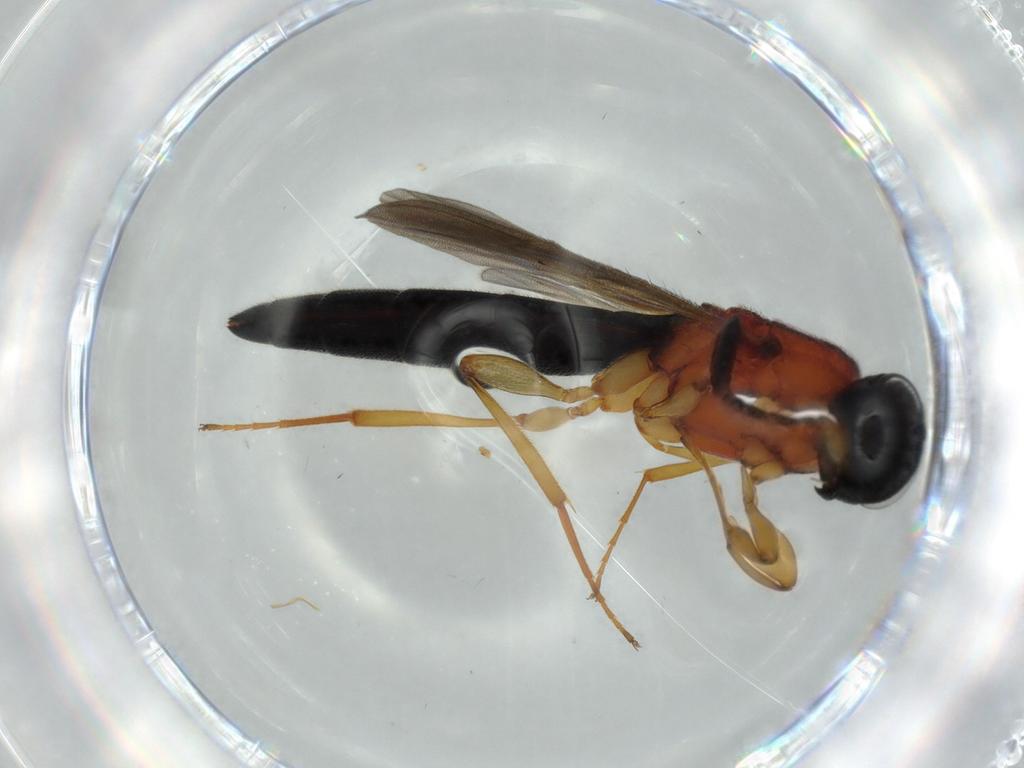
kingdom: Animalia
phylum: Arthropoda
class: Insecta
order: Hymenoptera
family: Scelionidae
